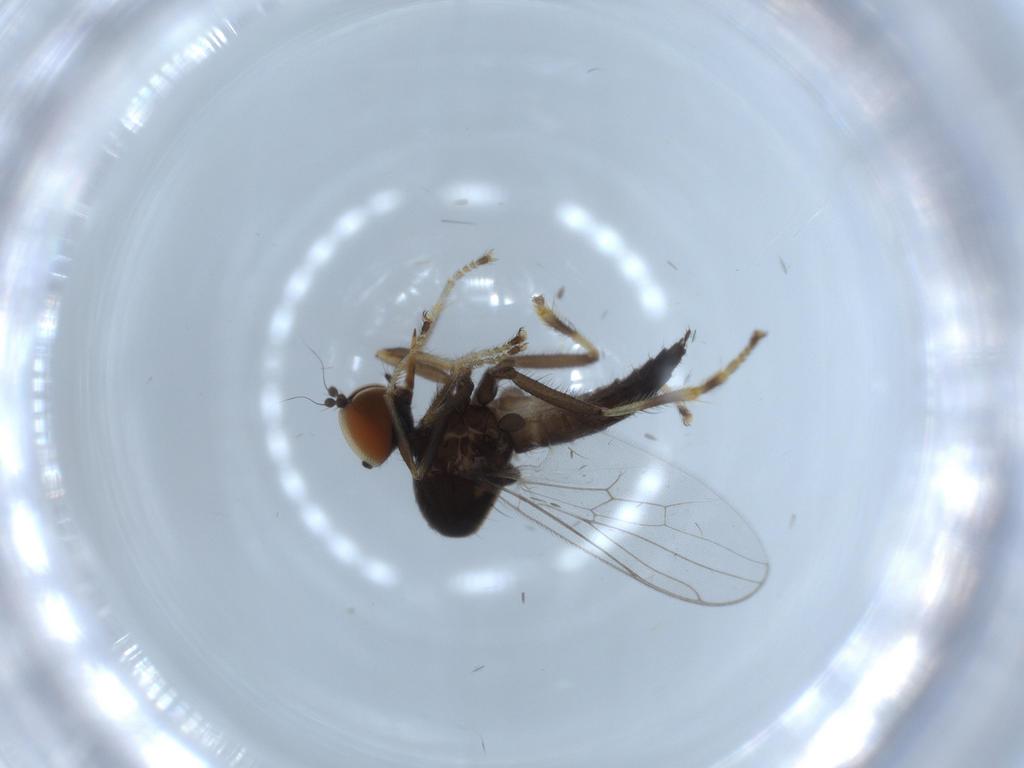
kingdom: Animalia
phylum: Arthropoda
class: Insecta
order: Diptera
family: Hybotidae
